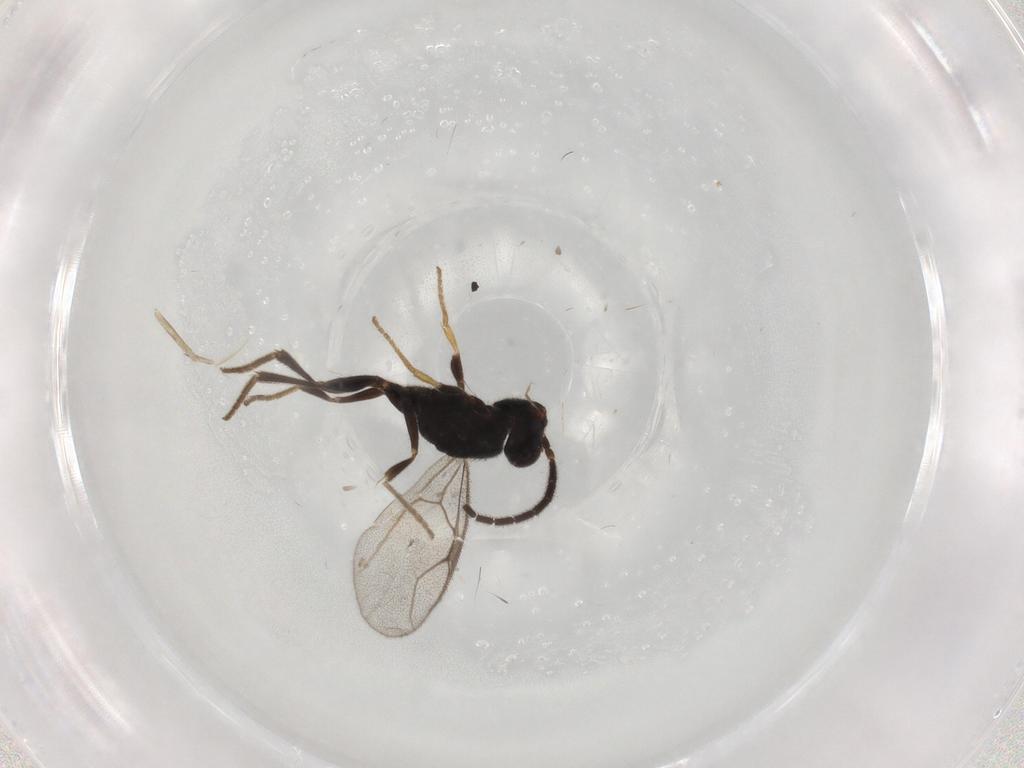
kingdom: Animalia
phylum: Arthropoda
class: Insecta
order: Hymenoptera
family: Dryinidae
